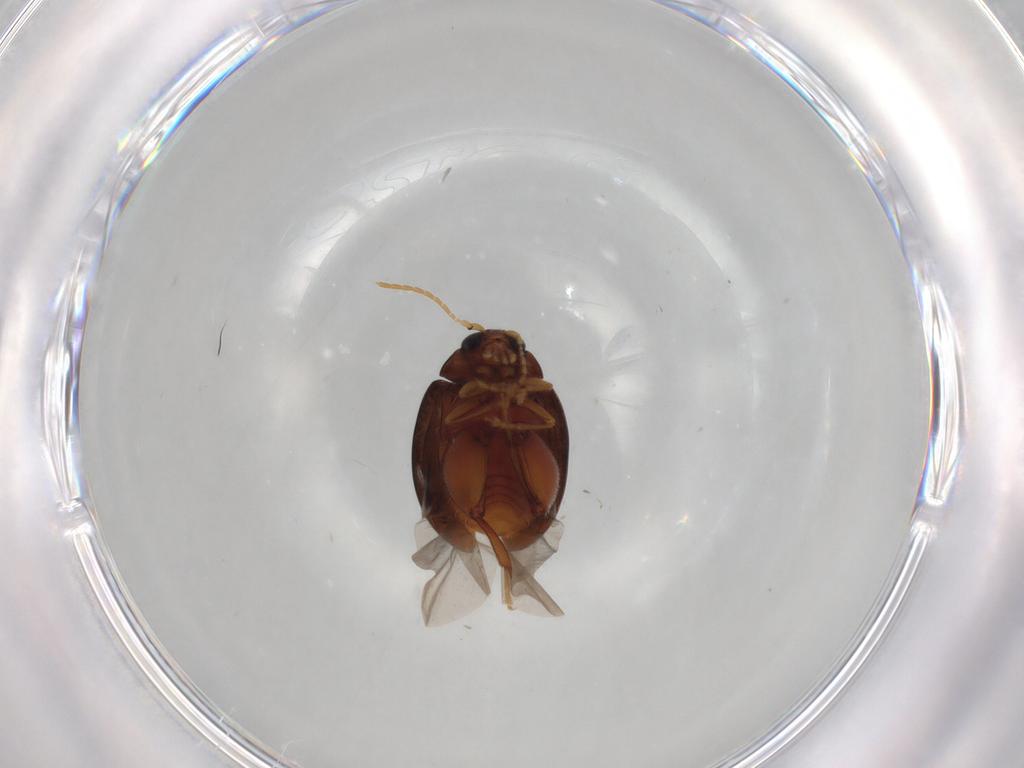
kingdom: Animalia
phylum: Arthropoda
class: Insecta
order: Coleoptera
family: Chrysomelidae
